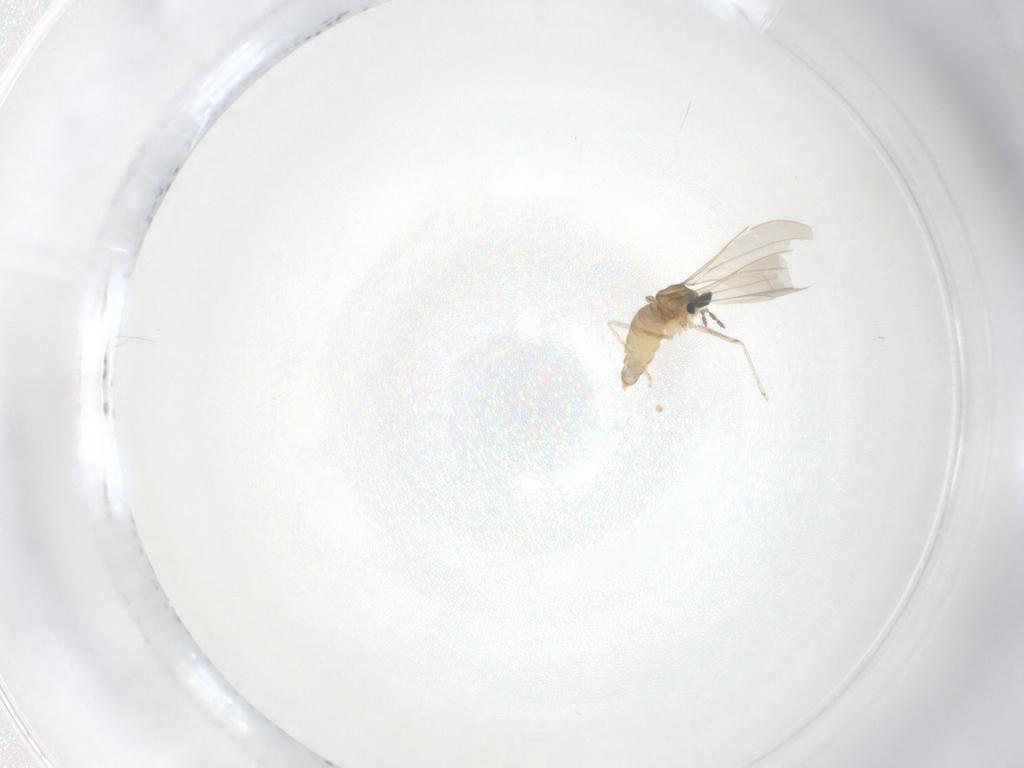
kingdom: Animalia
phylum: Arthropoda
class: Insecta
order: Diptera
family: Cecidomyiidae
